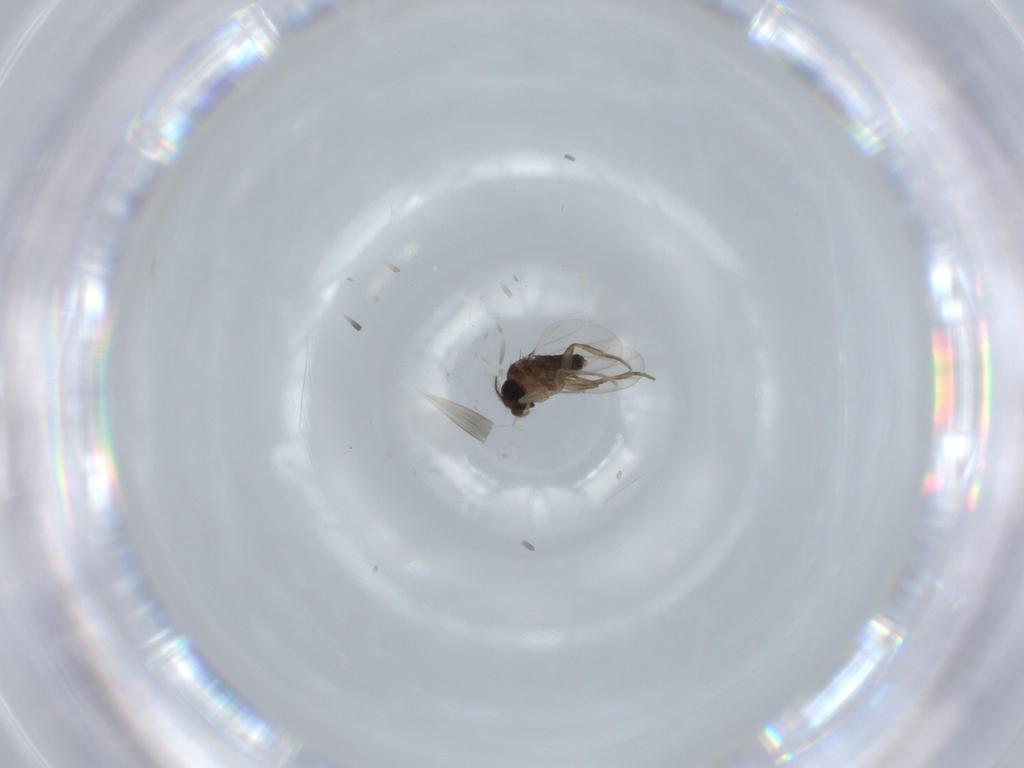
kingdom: Animalia
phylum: Arthropoda
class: Insecta
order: Diptera
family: Phoridae
